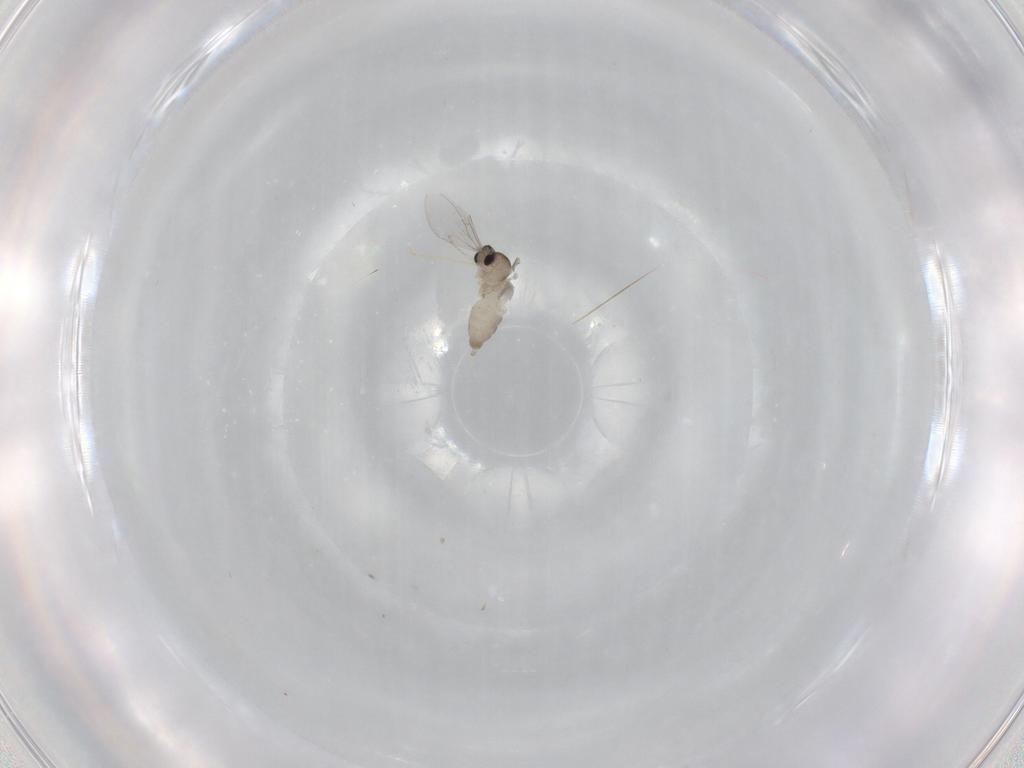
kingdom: Animalia
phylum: Arthropoda
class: Insecta
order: Diptera
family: Cecidomyiidae
